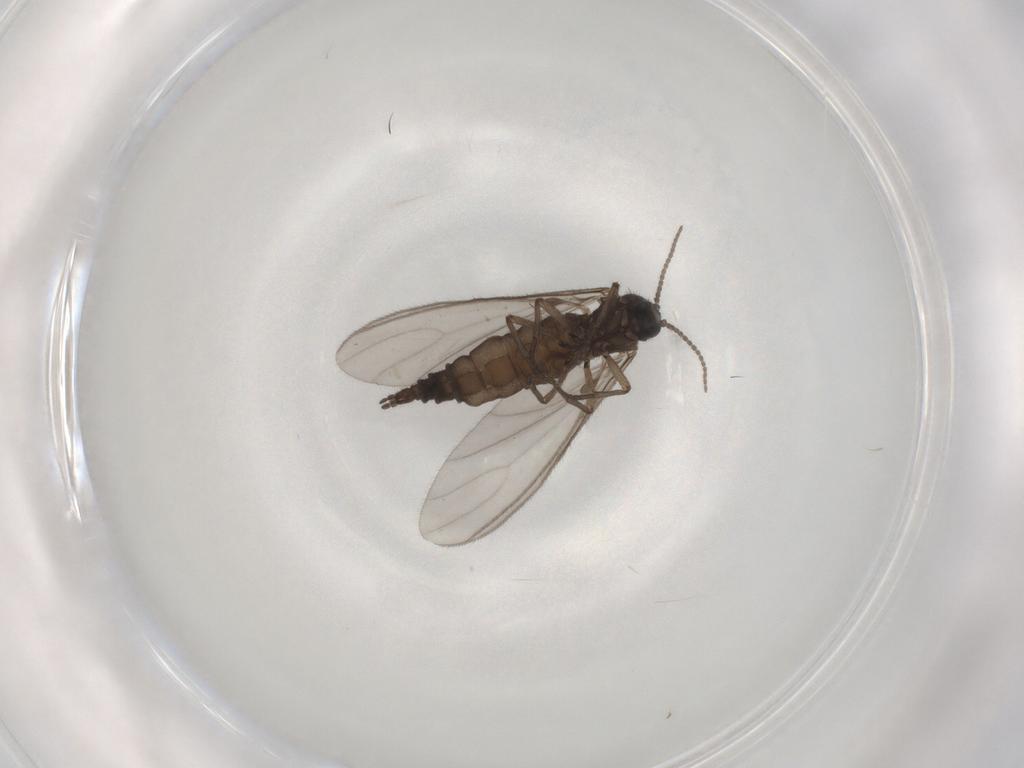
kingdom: Animalia
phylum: Arthropoda
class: Insecta
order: Diptera
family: Sciaridae
